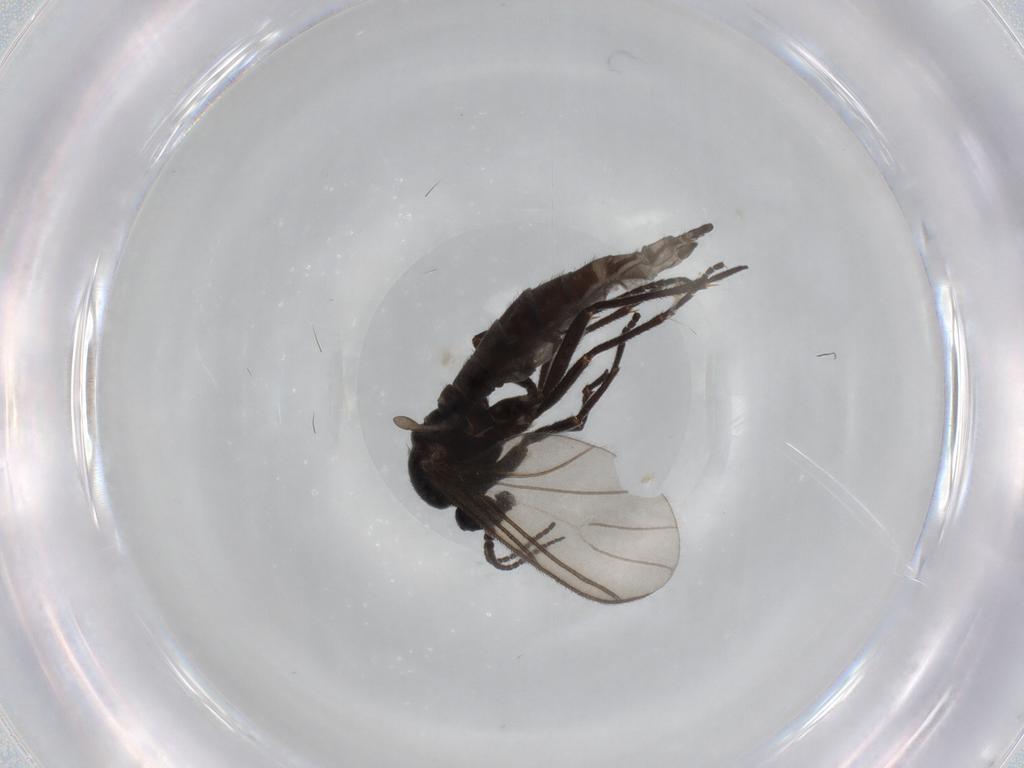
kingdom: Animalia
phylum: Arthropoda
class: Insecta
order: Diptera
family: Sciaridae
